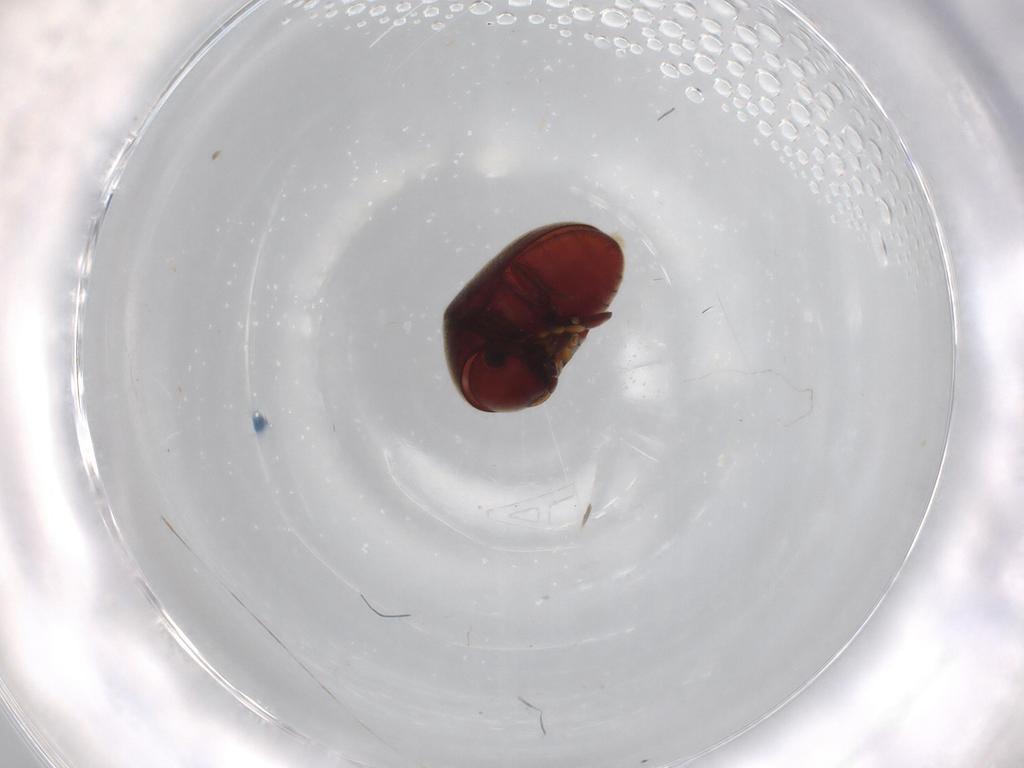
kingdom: Animalia
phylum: Arthropoda
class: Insecta
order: Coleoptera
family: Ptinidae
